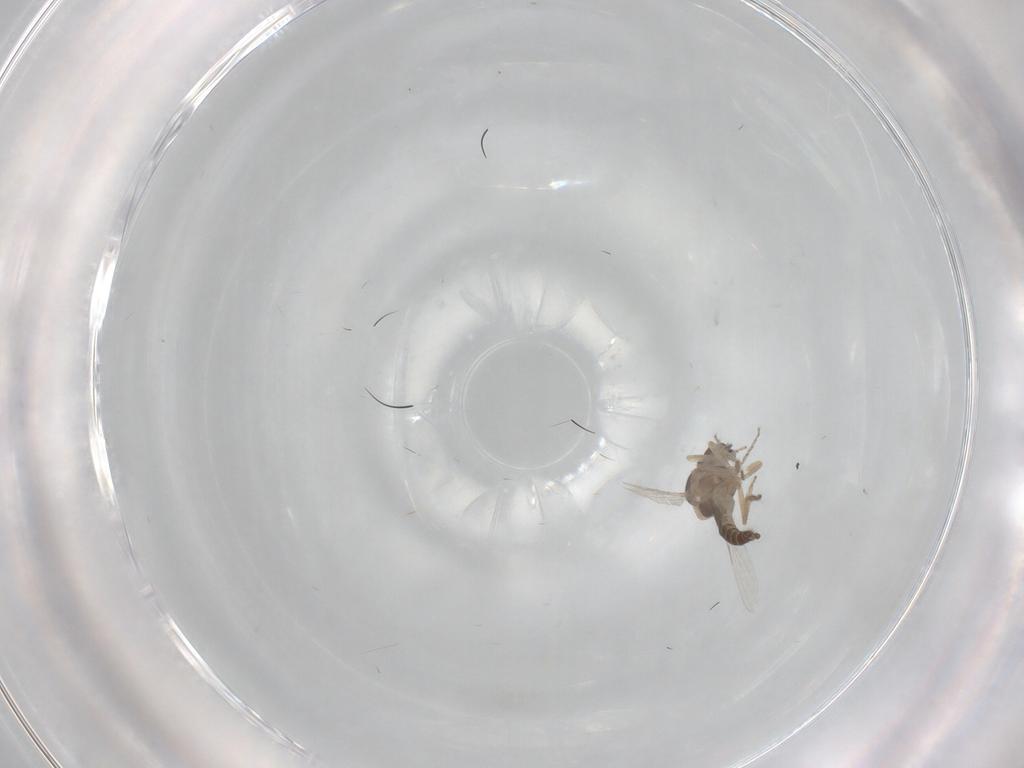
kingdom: Animalia
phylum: Arthropoda
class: Insecta
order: Diptera
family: Ceratopogonidae
